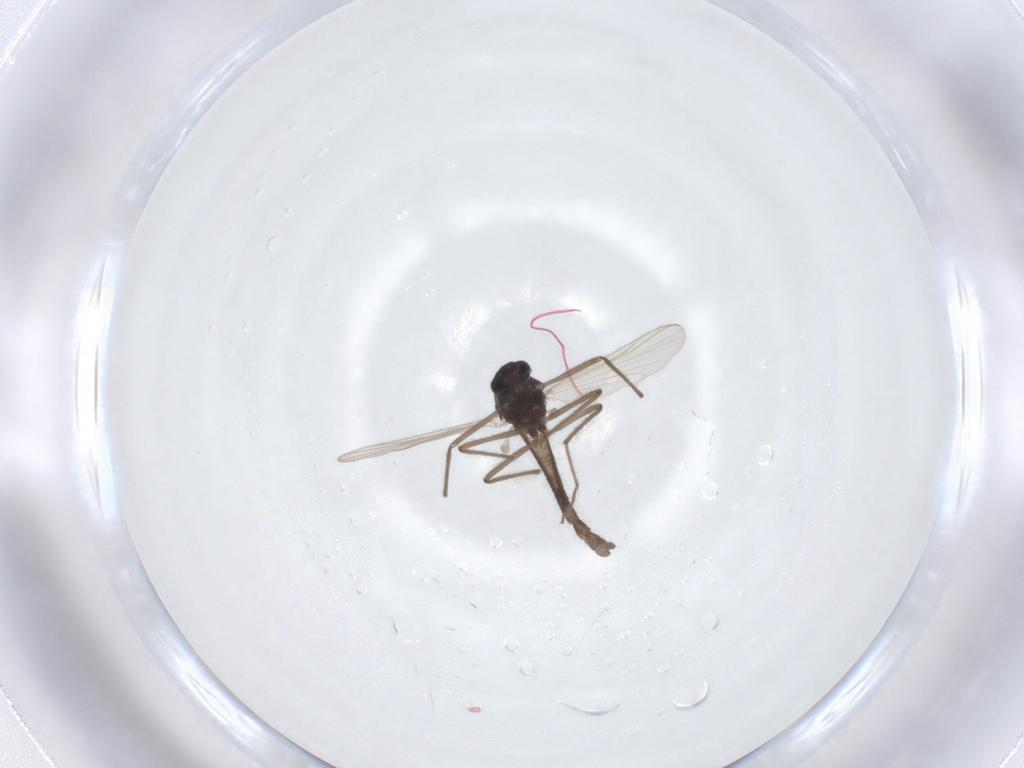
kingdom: Animalia
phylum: Arthropoda
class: Insecta
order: Diptera
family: Chironomidae
